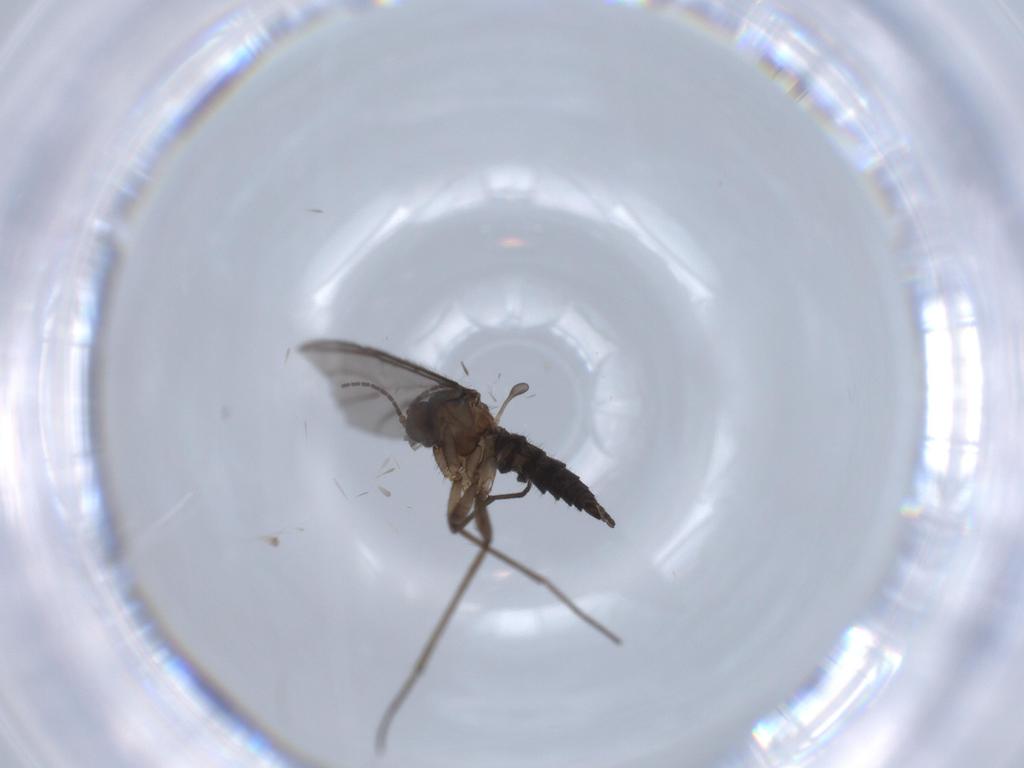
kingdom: Animalia
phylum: Arthropoda
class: Insecta
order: Diptera
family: Sciaridae
